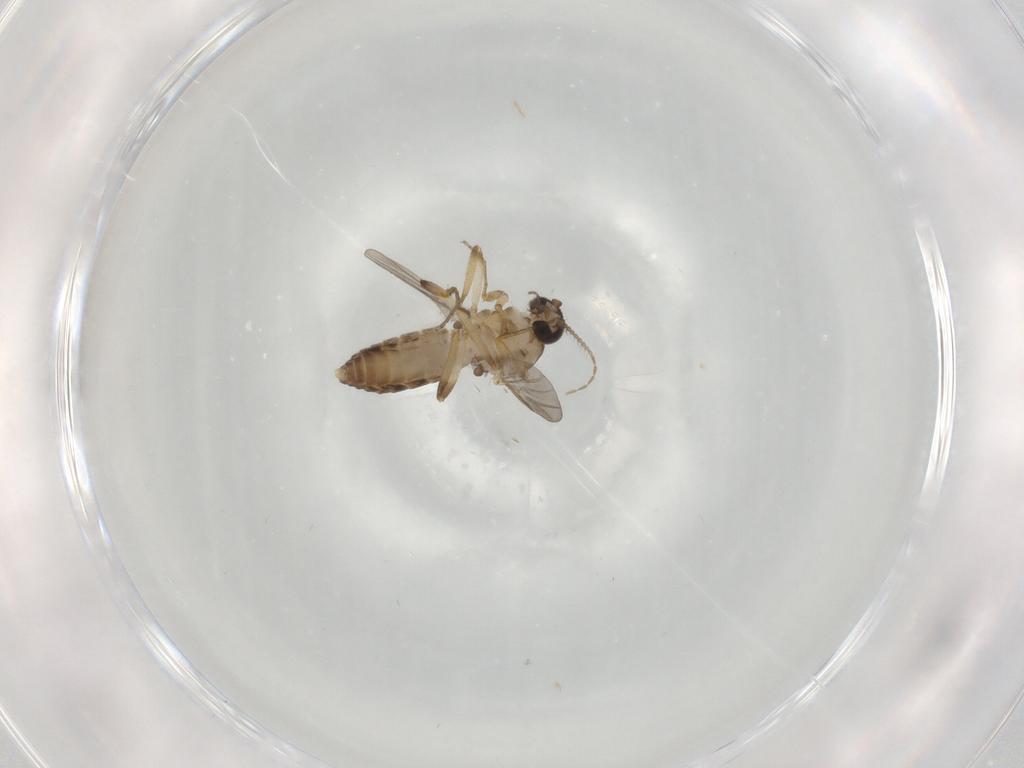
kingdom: Animalia
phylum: Arthropoda
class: Insecta
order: Diptera
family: Ceratopogonidae
